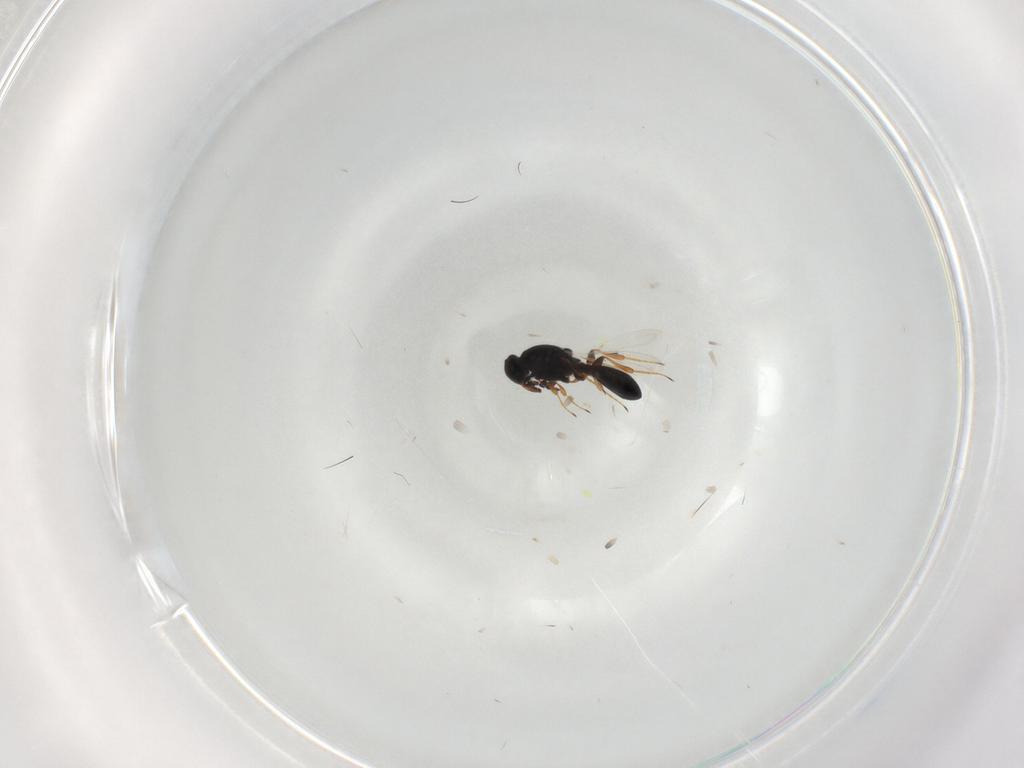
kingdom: Animalia
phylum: Arthropoda
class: Insecta
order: Hymenoptera
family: Platygastridae
